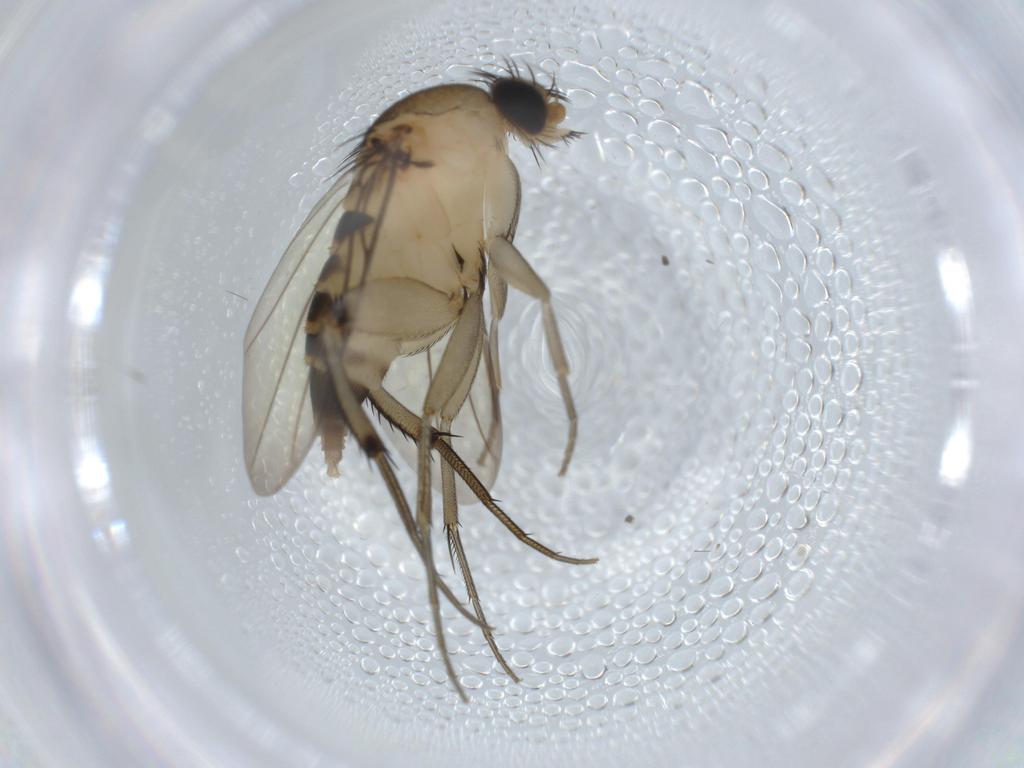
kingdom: Animalia
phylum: Arthropoda
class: Insecta
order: Diptera
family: Phoridae
